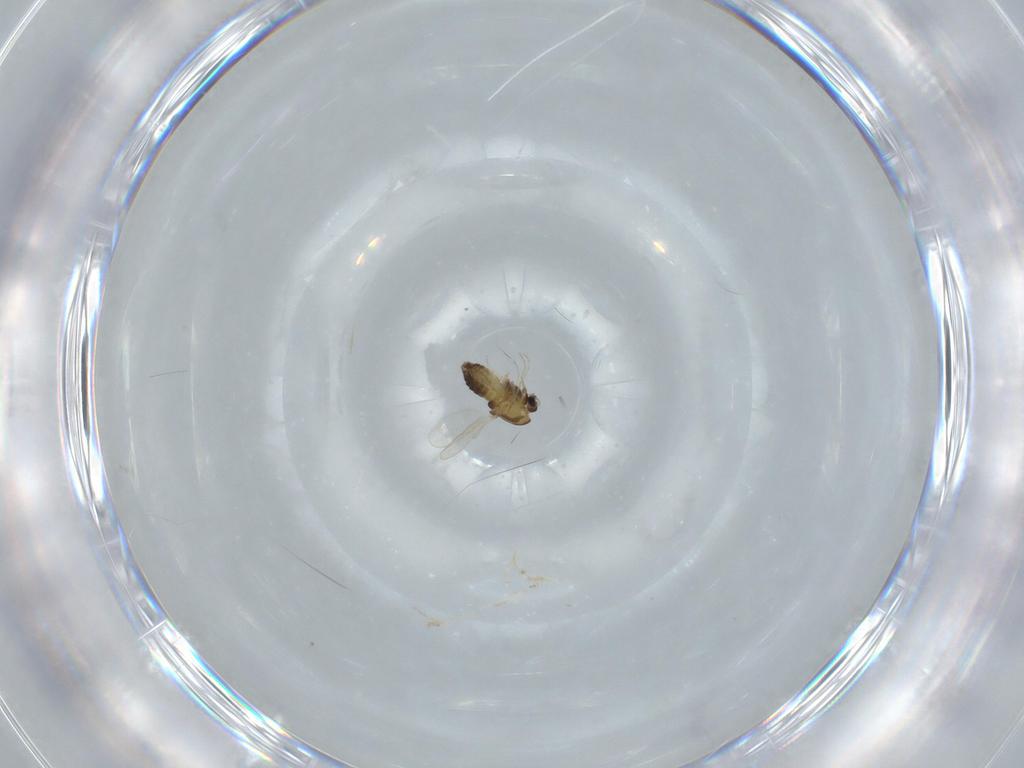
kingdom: Animalia
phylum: Arthropoda
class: Insecta
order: Diptera
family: Chironomidae
